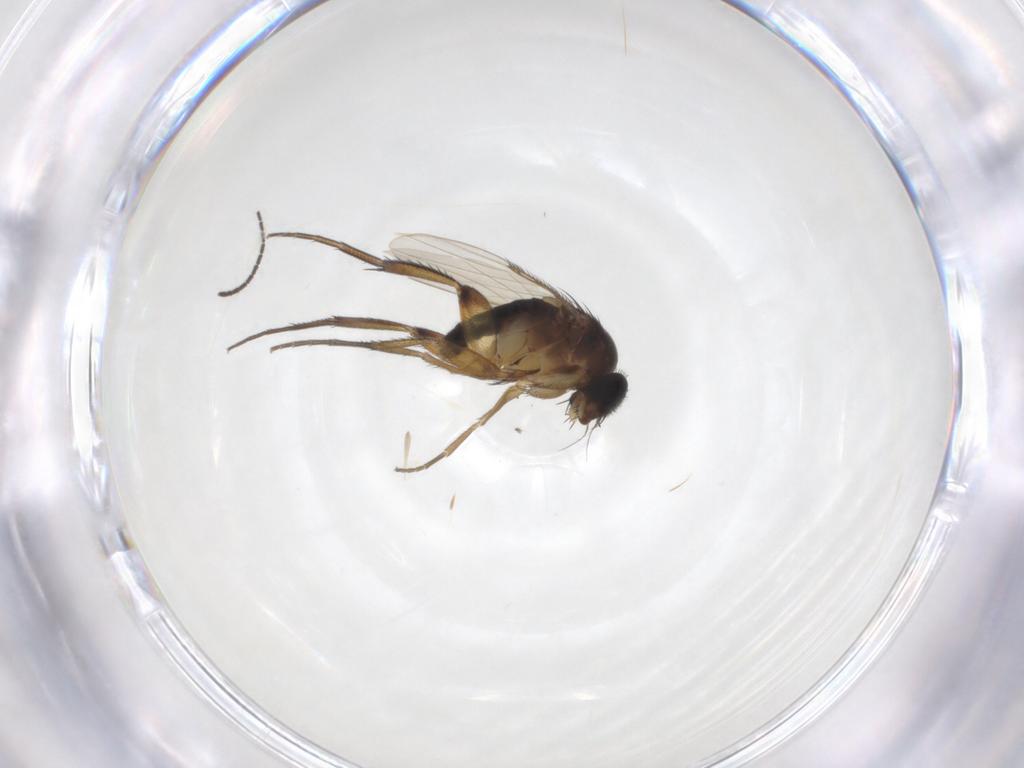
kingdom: Animalia
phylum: Arthropoda
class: Insecta
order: Diptera
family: Phoridae
